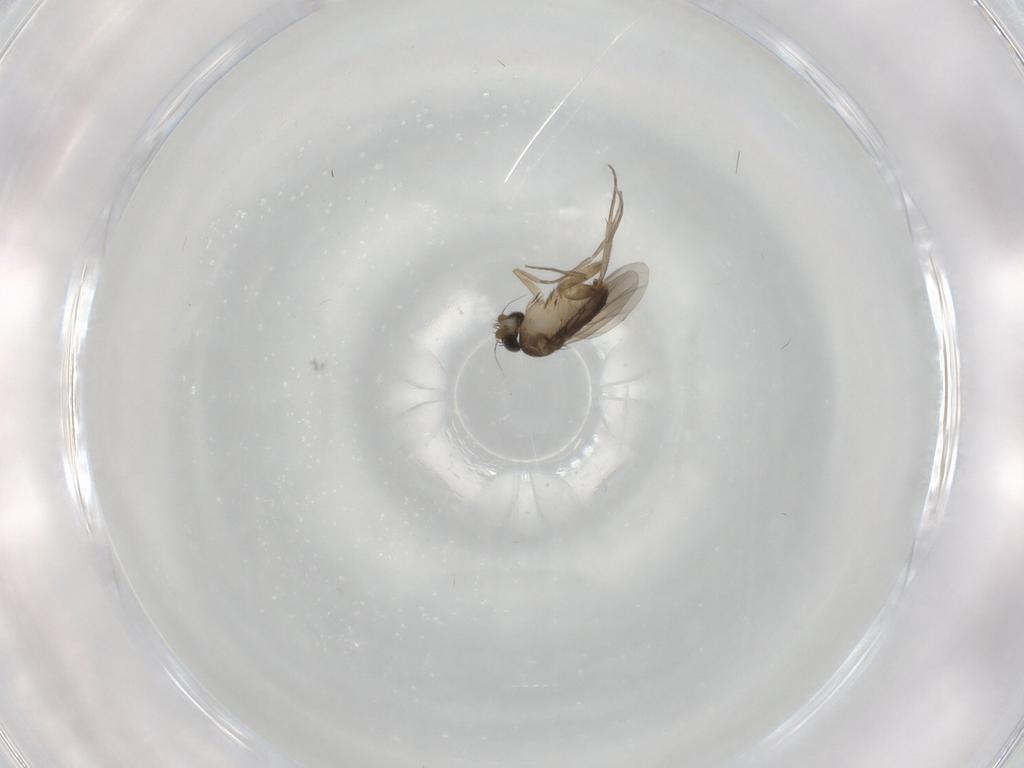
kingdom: Animalia
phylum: Arthropoda
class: Insecta
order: Diptera
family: Phoridae
